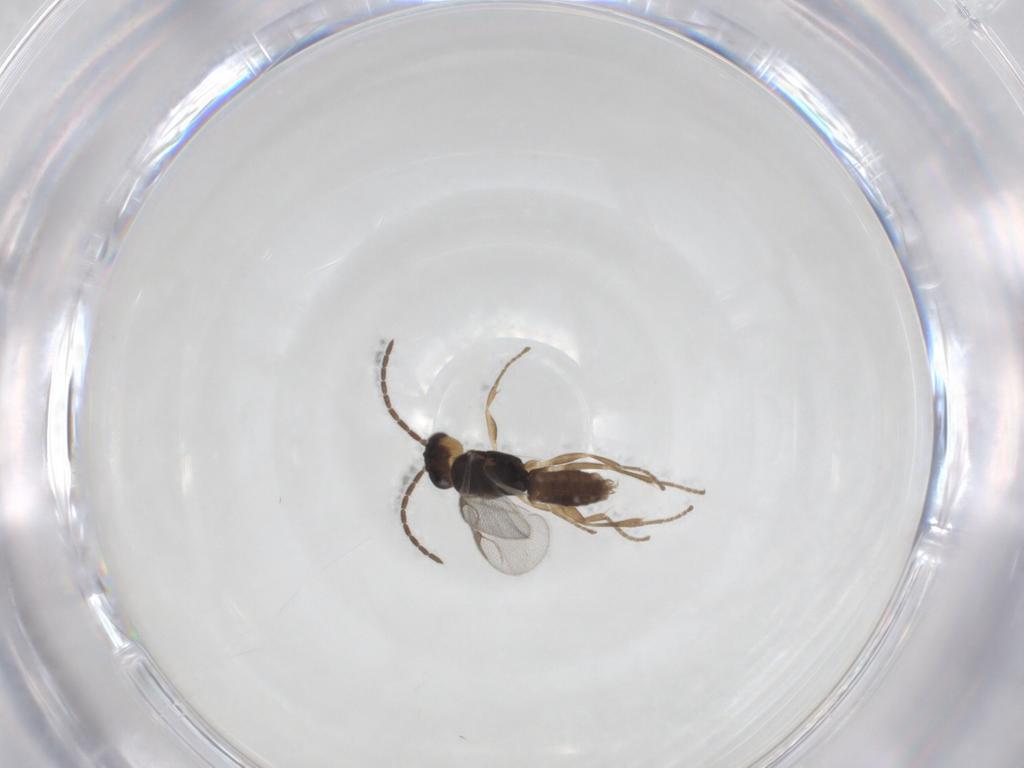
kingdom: Animalia
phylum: Arthropoda
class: Insecta
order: Hymenoptera
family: Dryinidae
